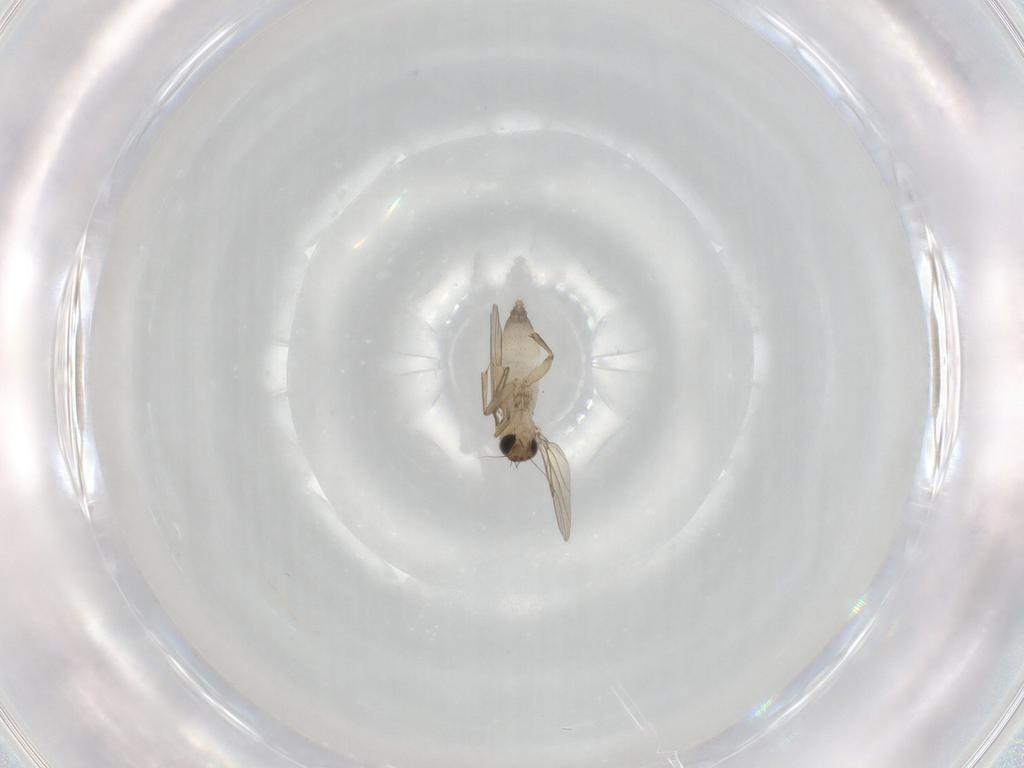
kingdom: Animalia
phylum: Arthropoda
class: Insecta
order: Diptera
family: Phoridae
